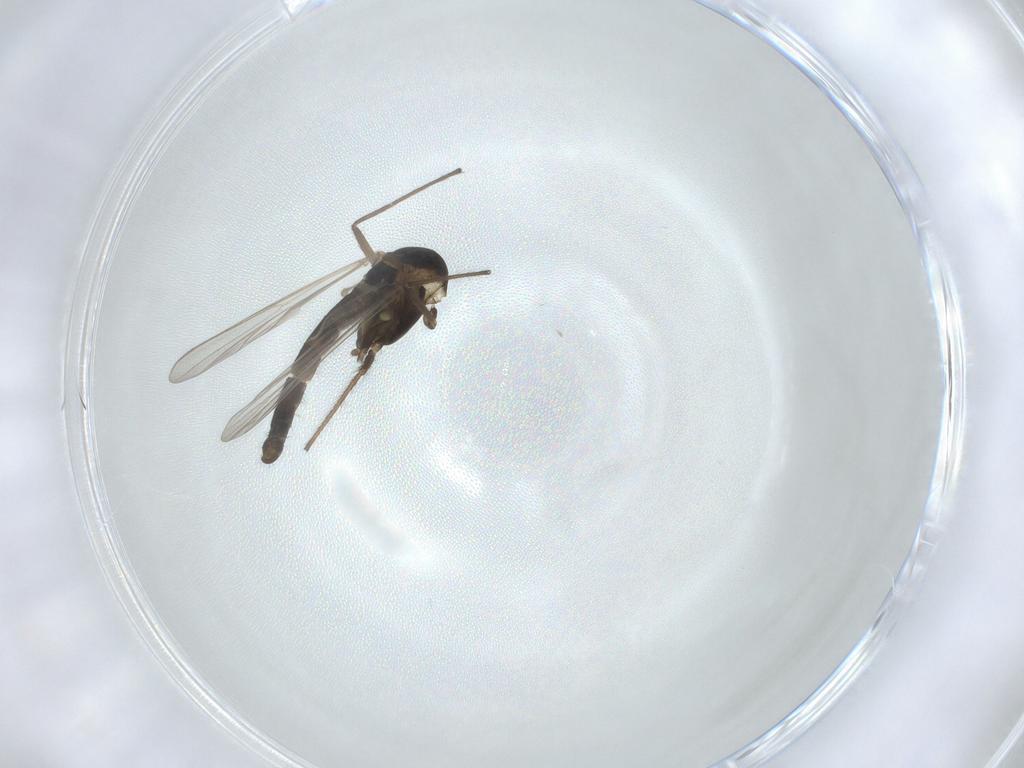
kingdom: Animalia
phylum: Arthropoda
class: Insecta
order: Diptera
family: Chironomidae
